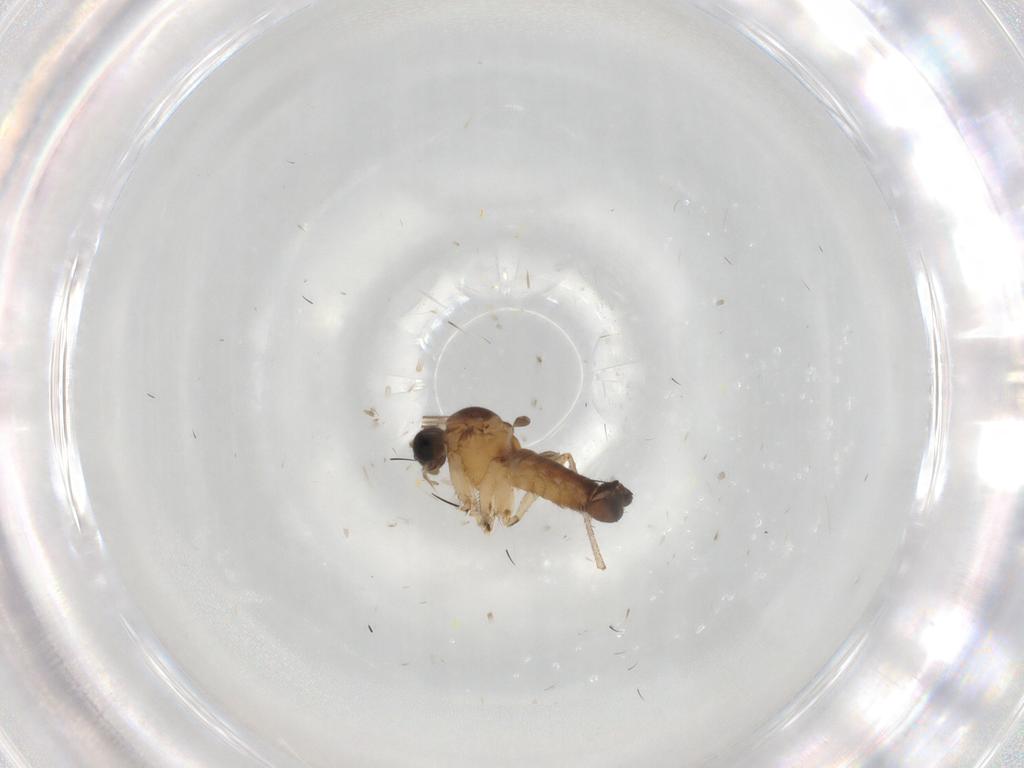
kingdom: Animalia
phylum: Arthropoda
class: Insecta
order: Diptera
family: Sciaridae
